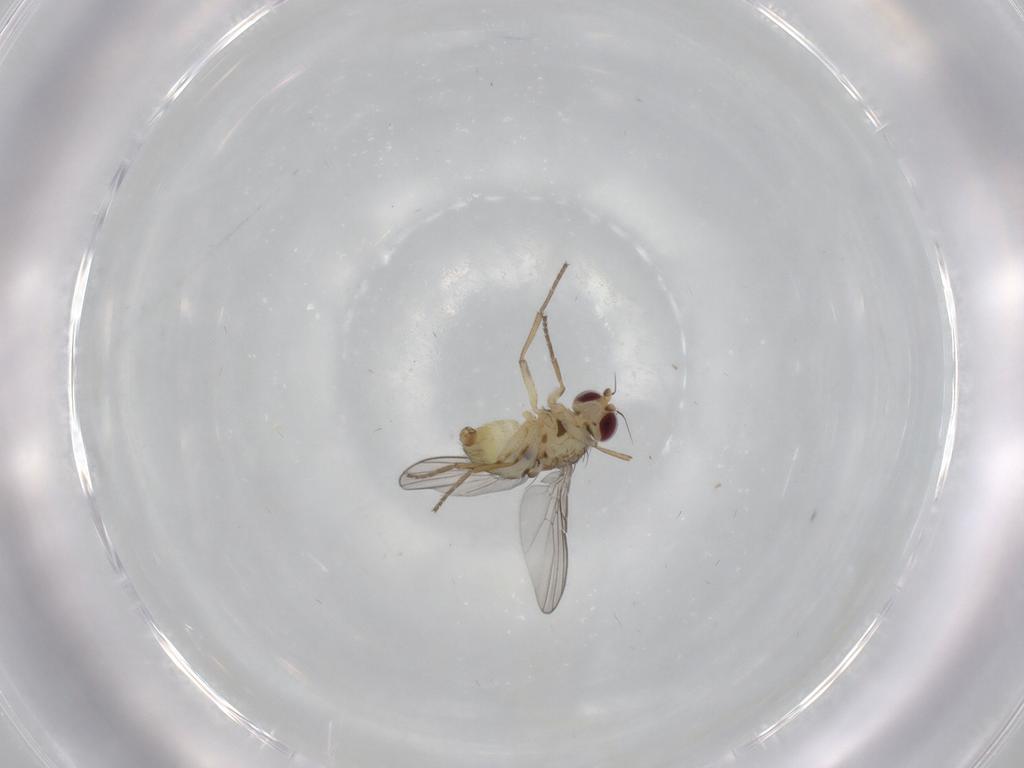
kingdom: Animalia
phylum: Arthropoda
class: Insecta
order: Diptera
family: Agromyzidae
